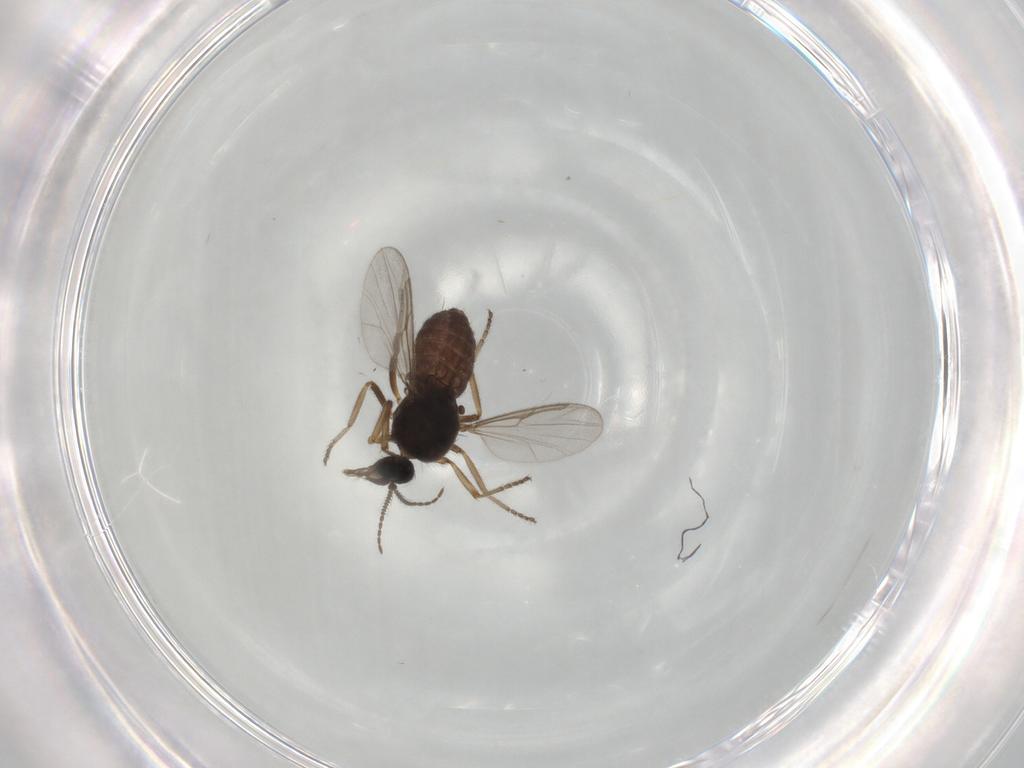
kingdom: Animalia
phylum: Arthropoda
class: Insecta
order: Diptera
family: Ceratopogonidae
